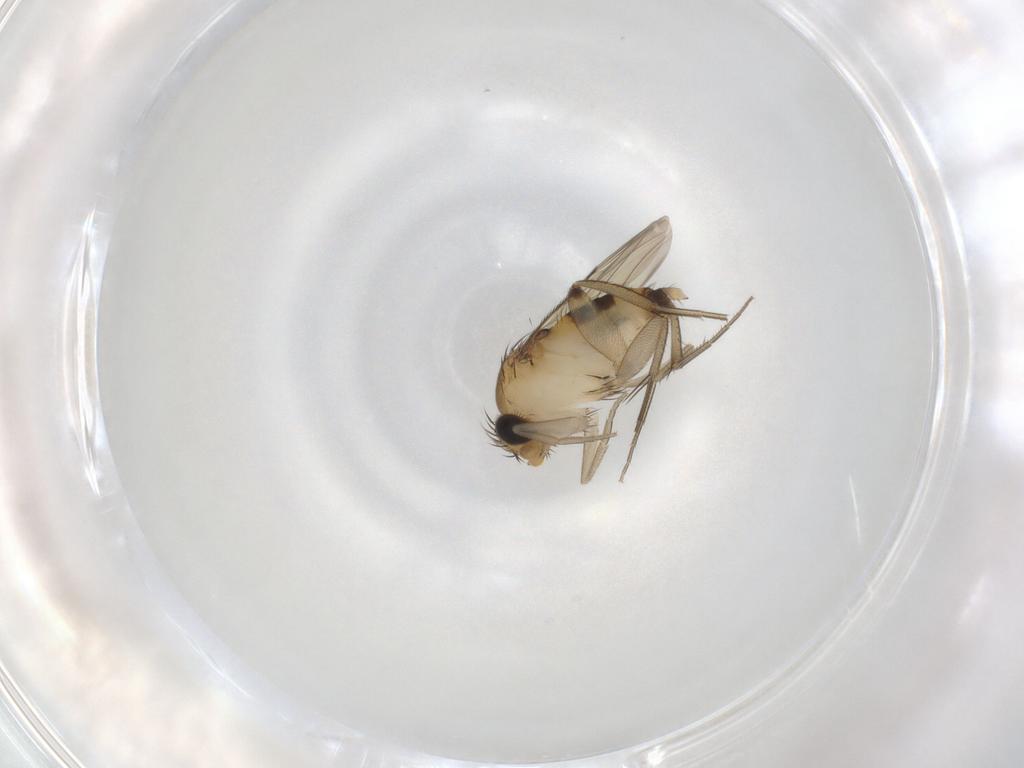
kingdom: Animalia
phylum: Arthropoda
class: Insecta
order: Diptera
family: Phoridae
